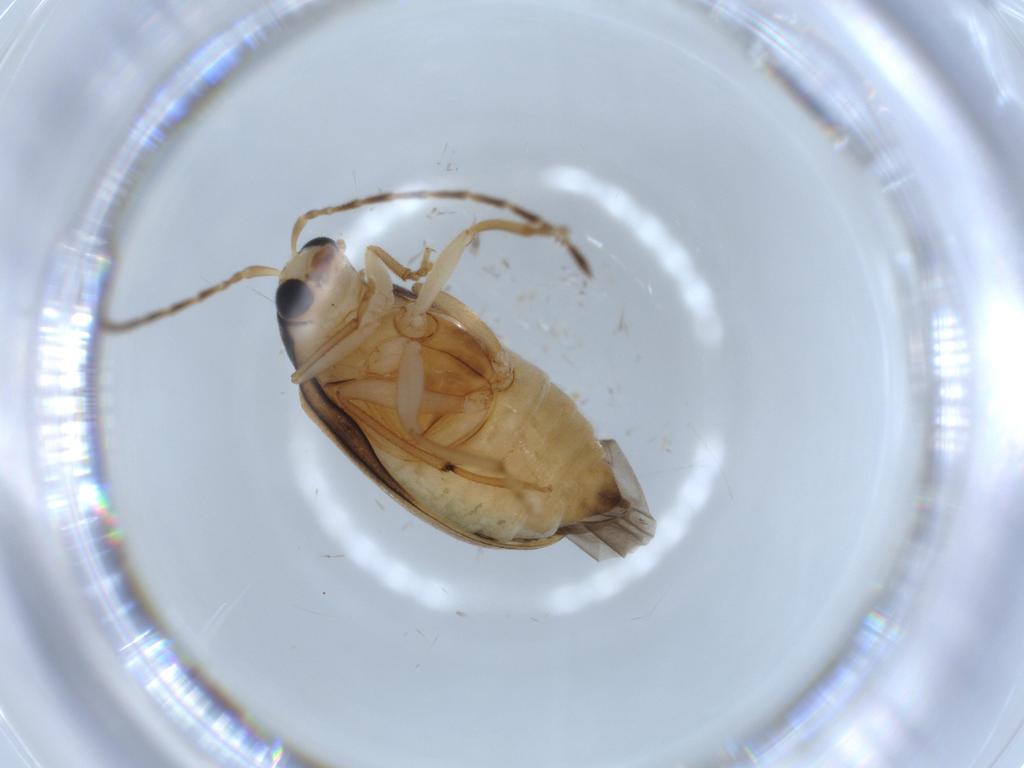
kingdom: Animalia
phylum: Arthropoda
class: Insecta
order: Coleoptera
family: Chrysomelidae
